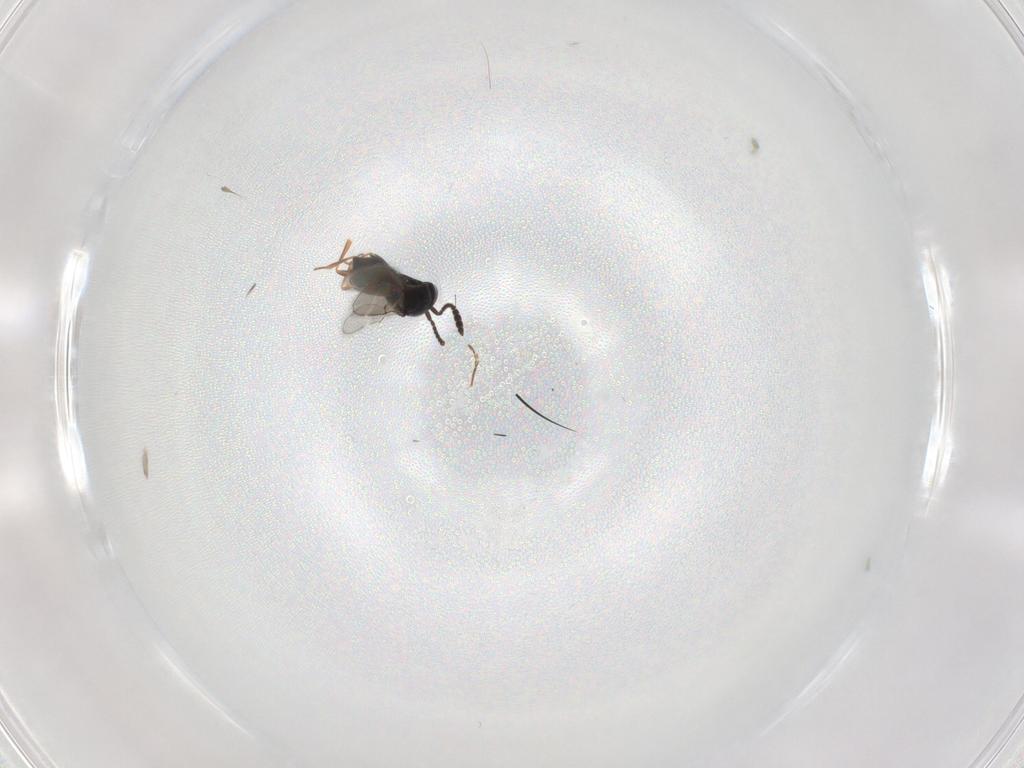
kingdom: Animalia
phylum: Arthropoda
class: Insecta
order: Hymenoptera
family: Scelionidae
